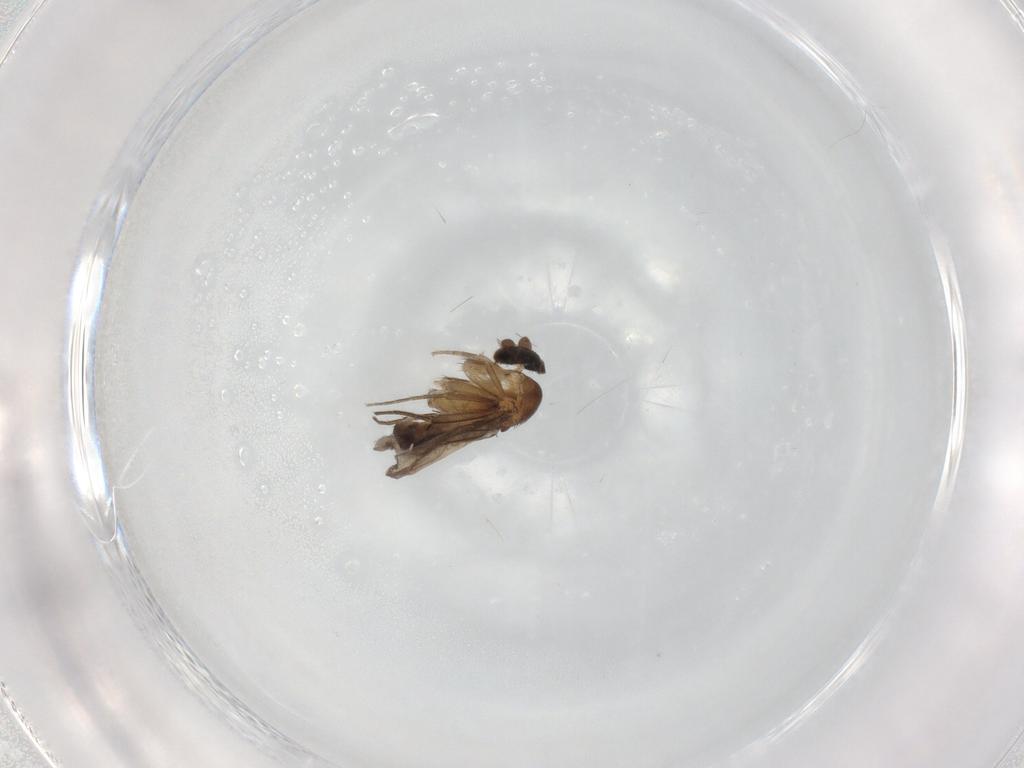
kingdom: Animalia
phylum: Arthropoda
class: Insecta
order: Diptera
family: Phoridae
